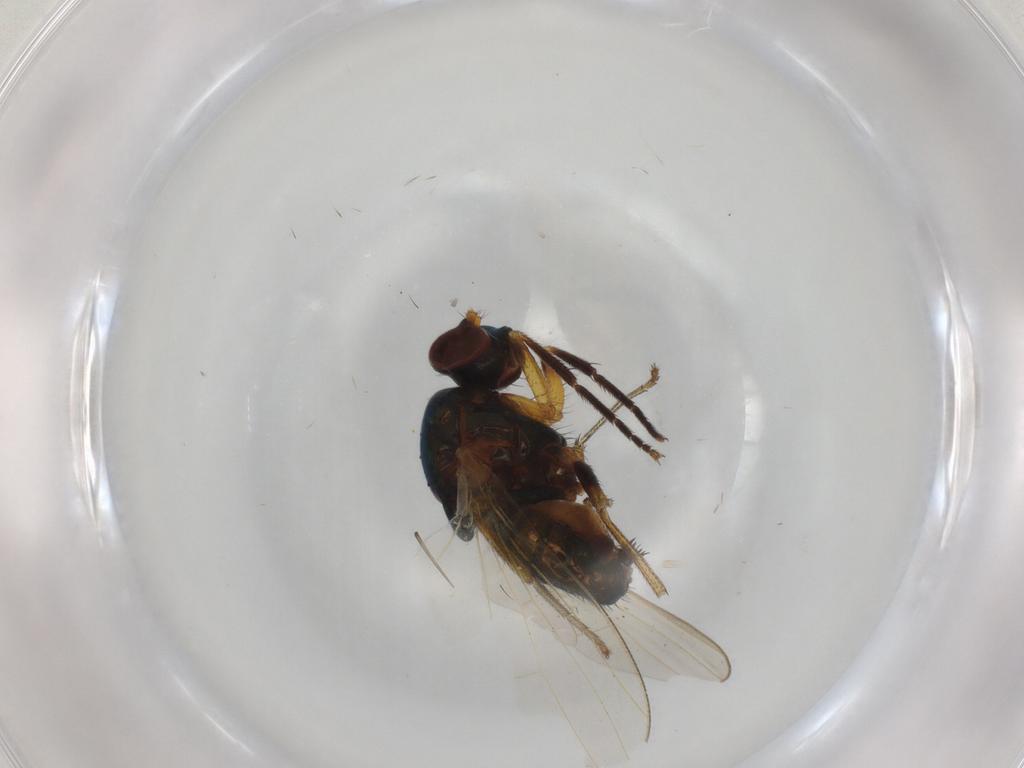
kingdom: Animalia
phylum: Arthropoda
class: Insecta
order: Diptera
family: Lauxaniidae
